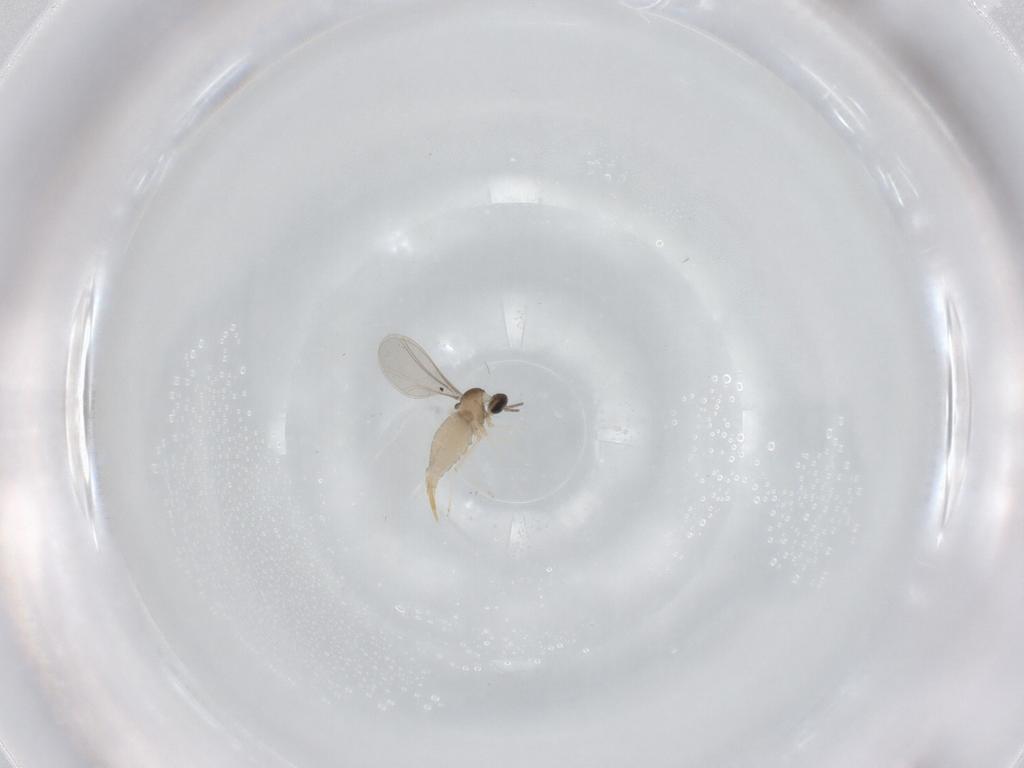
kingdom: Animalia
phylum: Arthropoda
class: Insecta
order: Diptera
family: Cecidomyiidae
